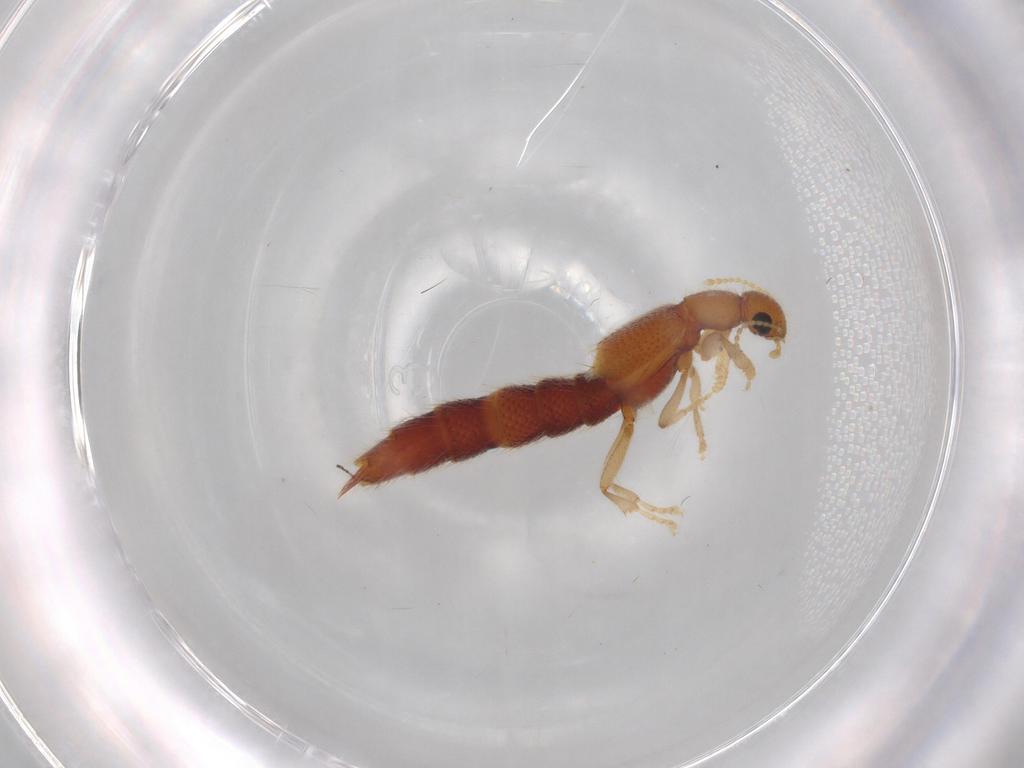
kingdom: Animalia
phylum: Arthropoda
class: Insecta
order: Coleoptera
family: Staphylinidae
